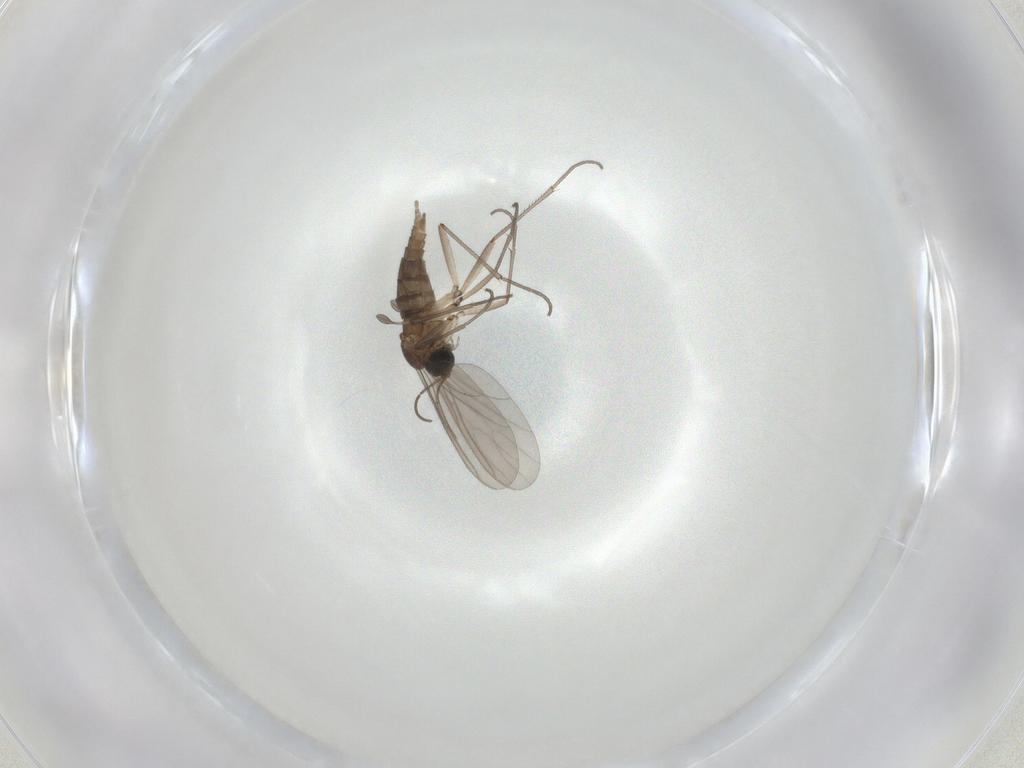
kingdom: Animalia
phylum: Arthropoda
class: Insecta
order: Diptera
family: Sciaridae
